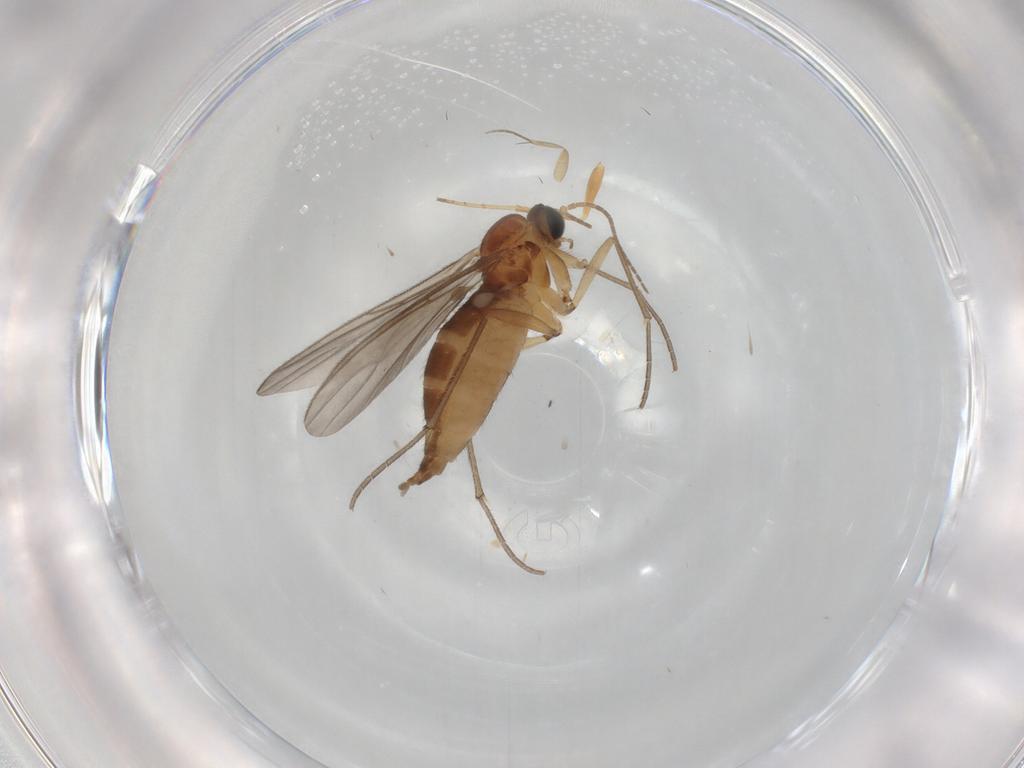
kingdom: Animalia
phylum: Arthropoda
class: Insecta
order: Diptera
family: Sciaridae
